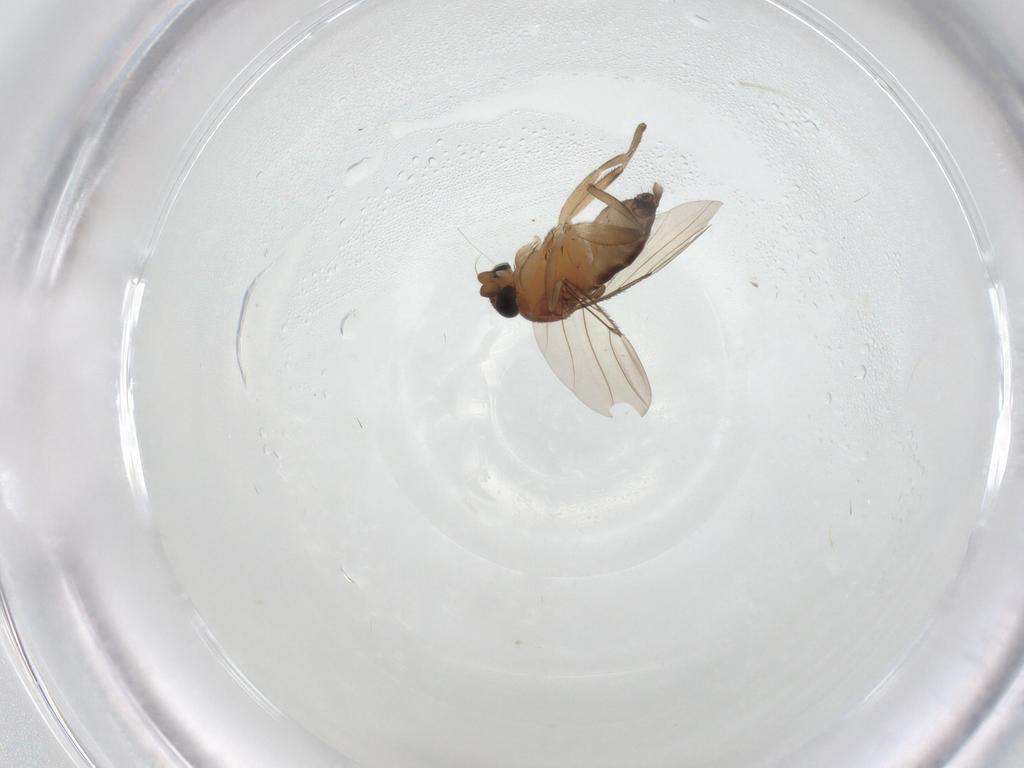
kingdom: Animalia
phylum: Arthropoda
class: Insecta
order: Diptera
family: Phoridae
